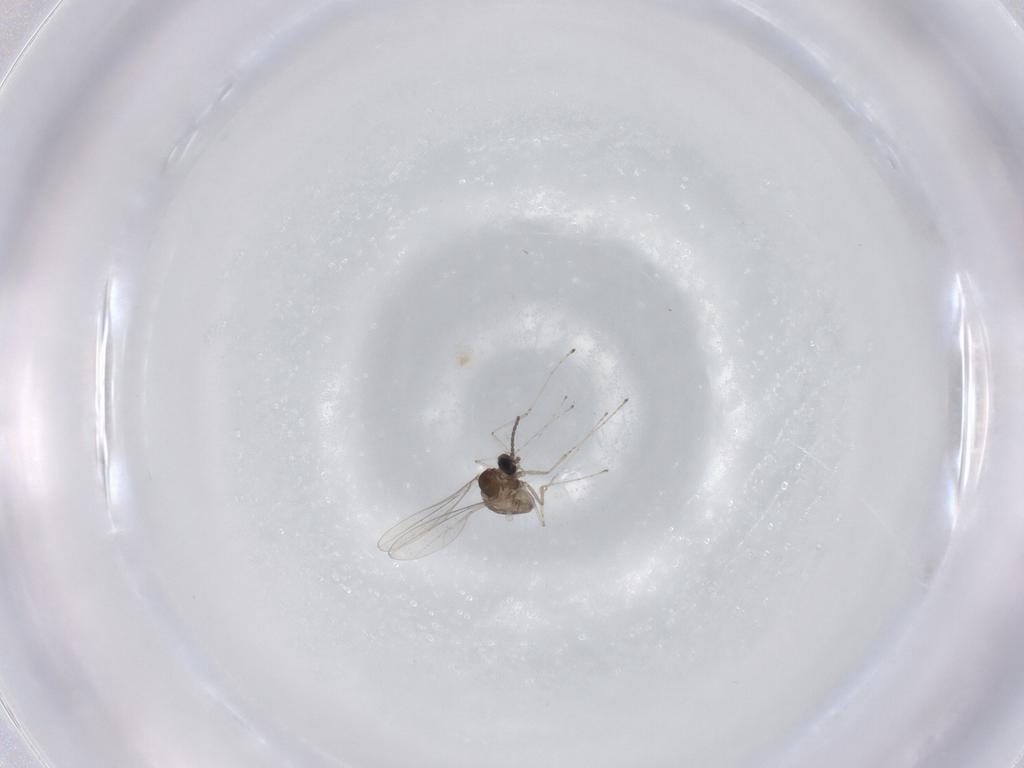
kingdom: Animalia
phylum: Arthropoda
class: Insecta
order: Diptera
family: Cecidomyiidae
